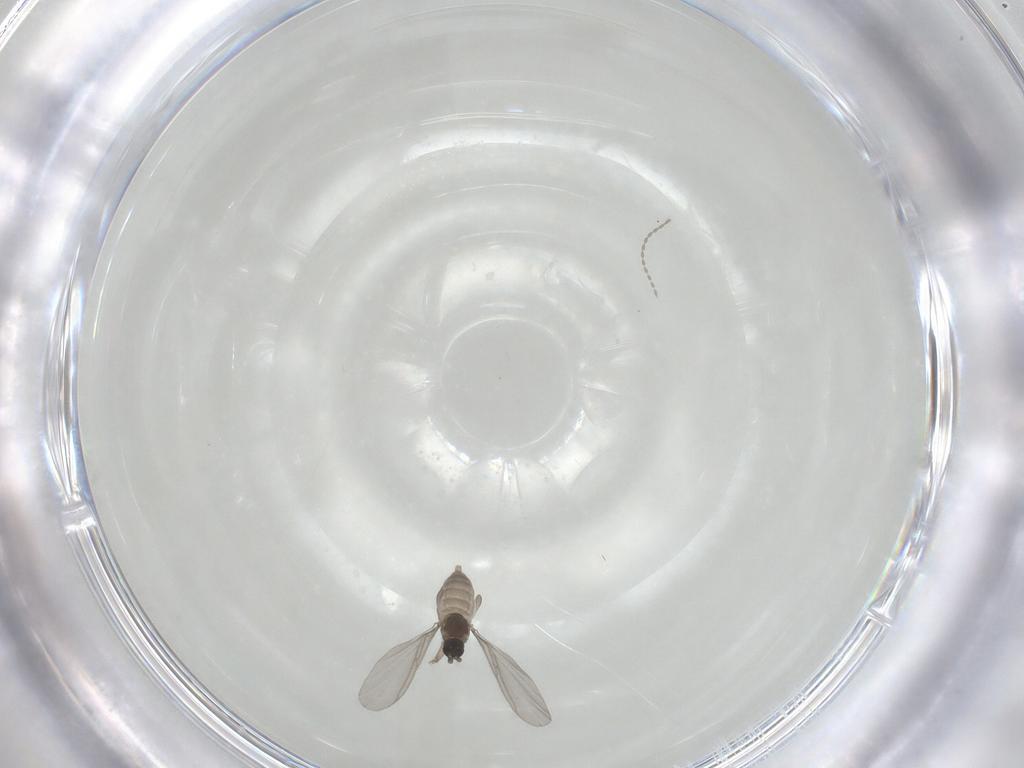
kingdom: Animalia
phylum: Arthropoda
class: Insecta
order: Diptera
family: Cecidomyiidae
